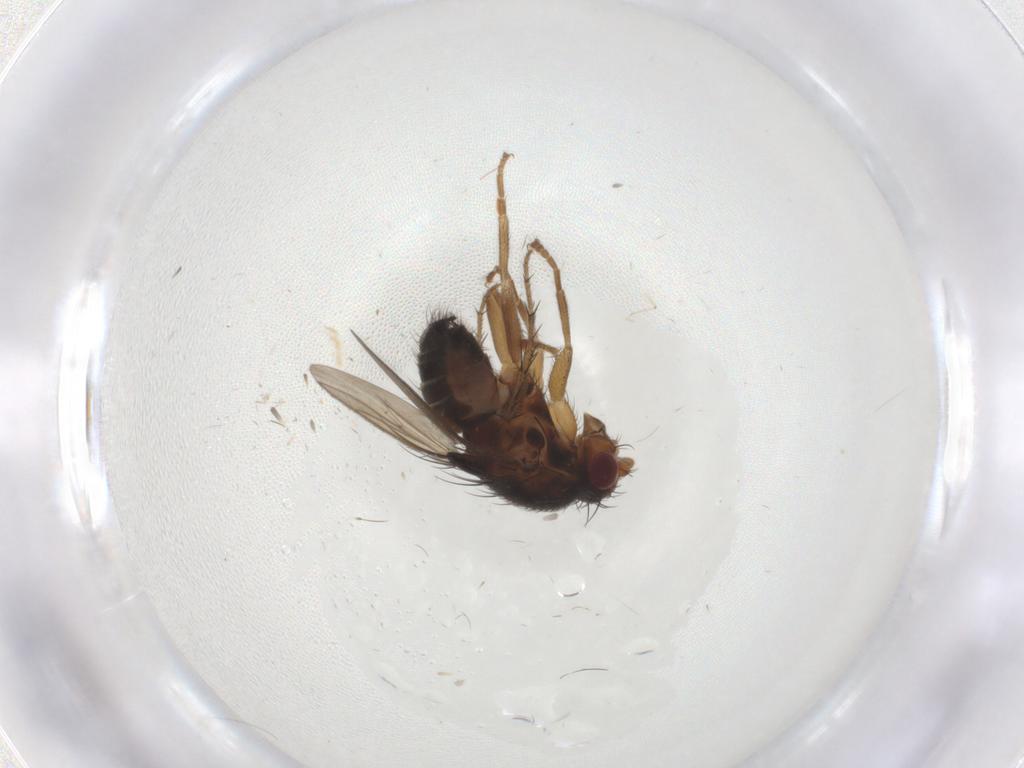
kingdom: Animalia
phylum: Arthropoda
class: Insecta
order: Diptera
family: Sphaeroceridae
